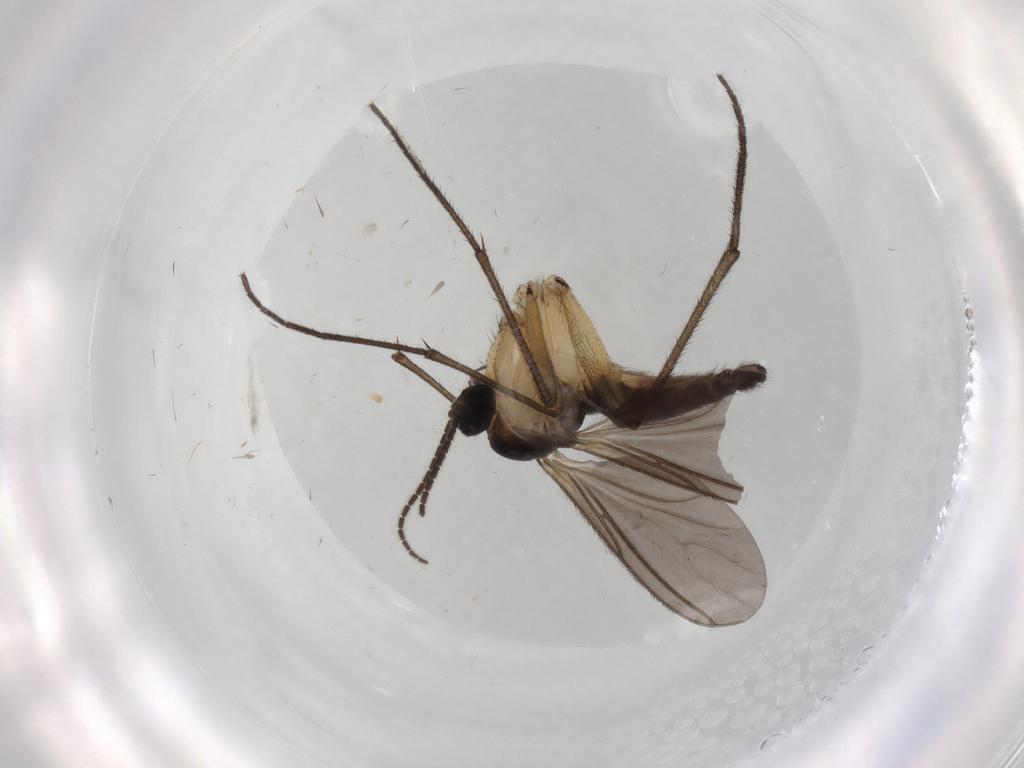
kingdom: Animalia
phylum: Arthropoda
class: Insecta
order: Diptera
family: Sciaridae
